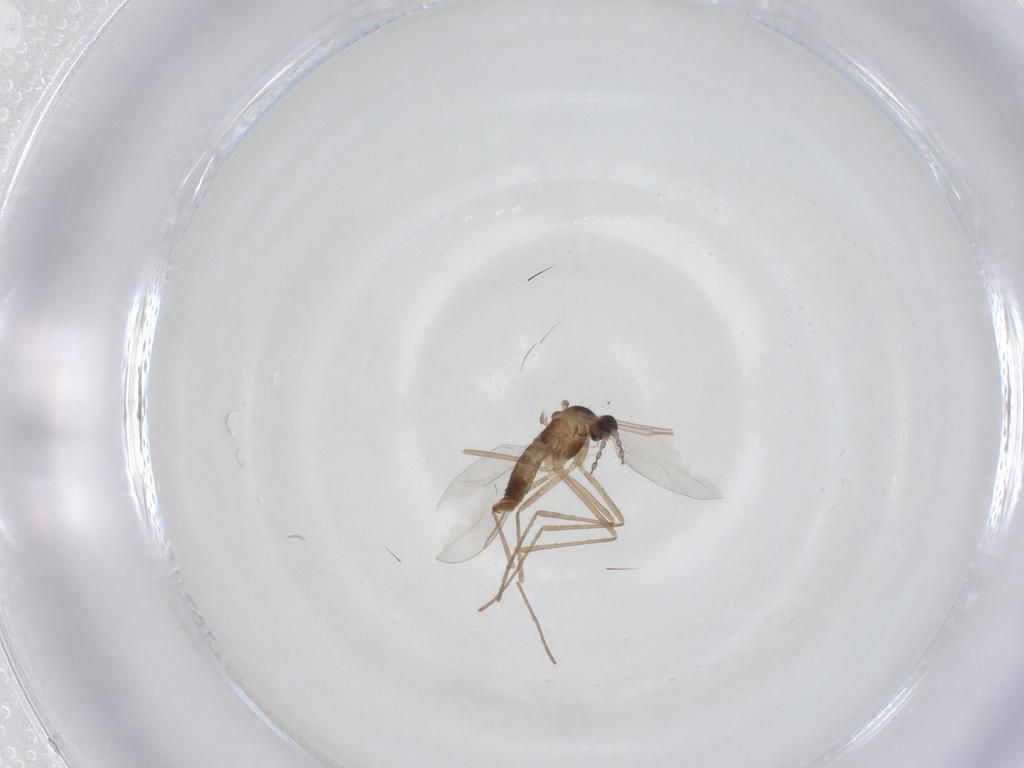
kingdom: Animalia
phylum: Arthropoda
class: Insecta
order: Diptera
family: Cecidomyiidae
